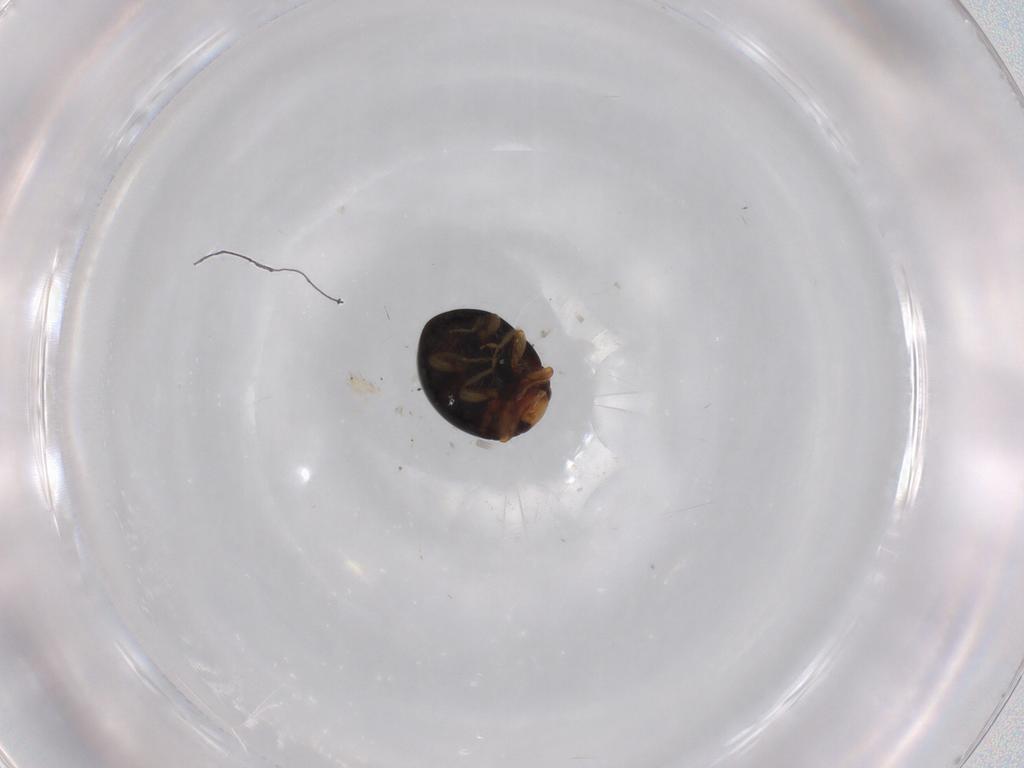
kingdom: Animalia
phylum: Arthropoda
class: Insecta
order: Coleoptera
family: Coccinellidae
